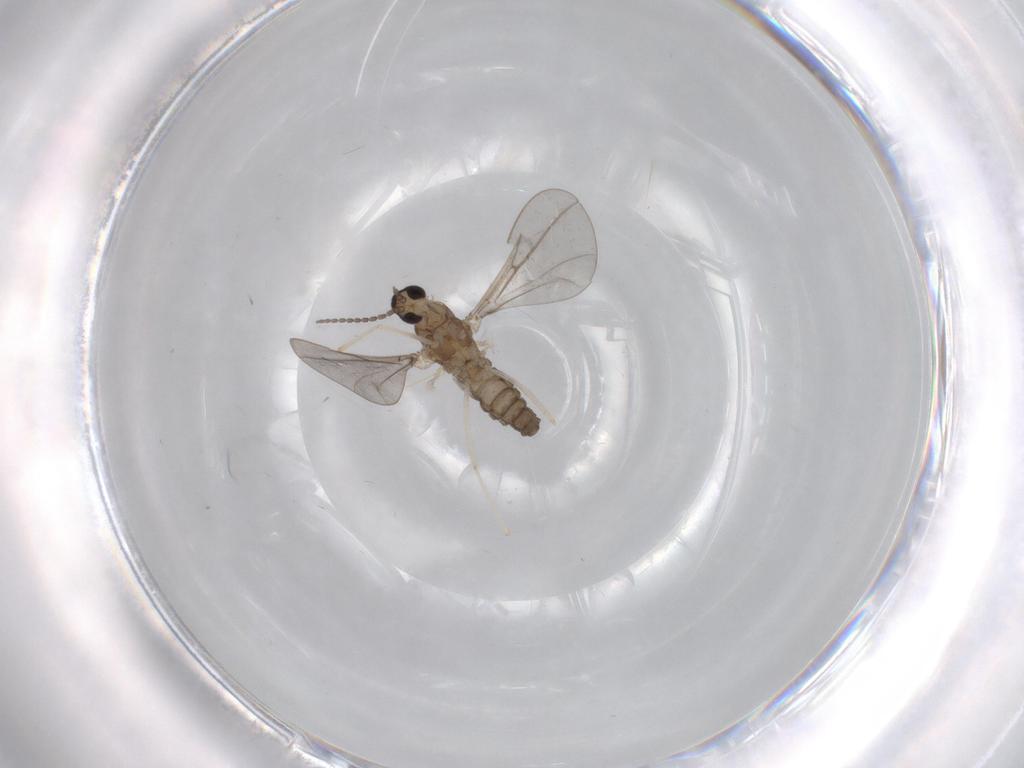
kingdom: Animalia
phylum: Arthropoda
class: Insecta
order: Diptera
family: Cecidomyiidae
